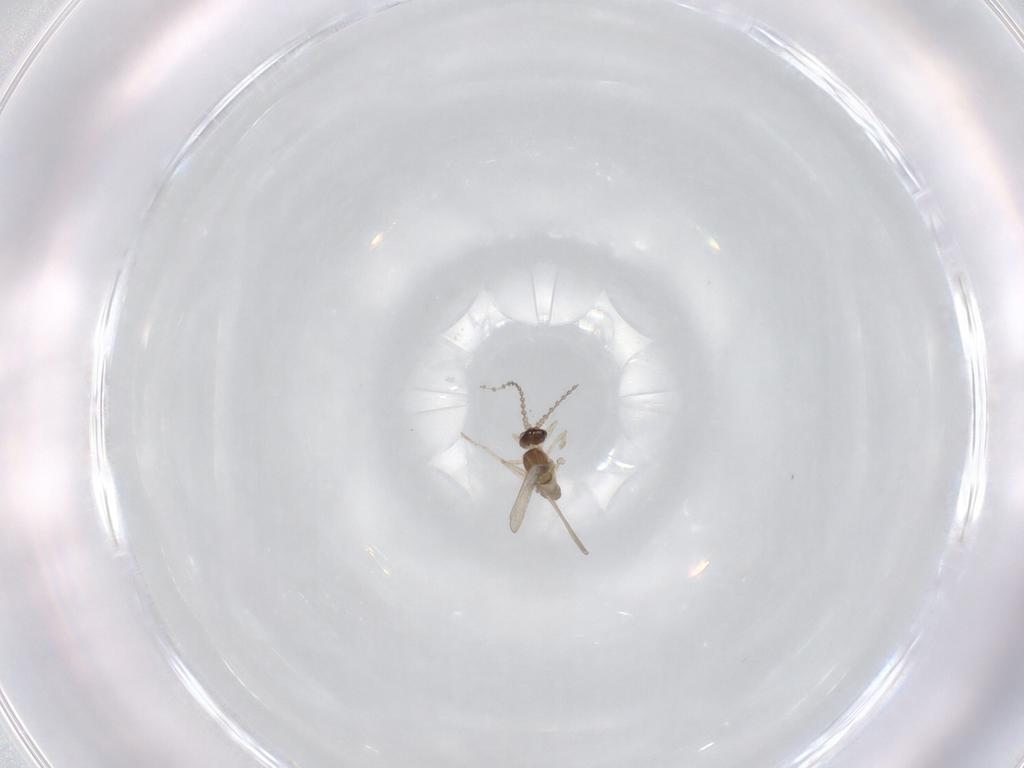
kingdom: Animalia
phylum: Arthropoda
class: Insecta
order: Diptera
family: Cecidomyiidae
